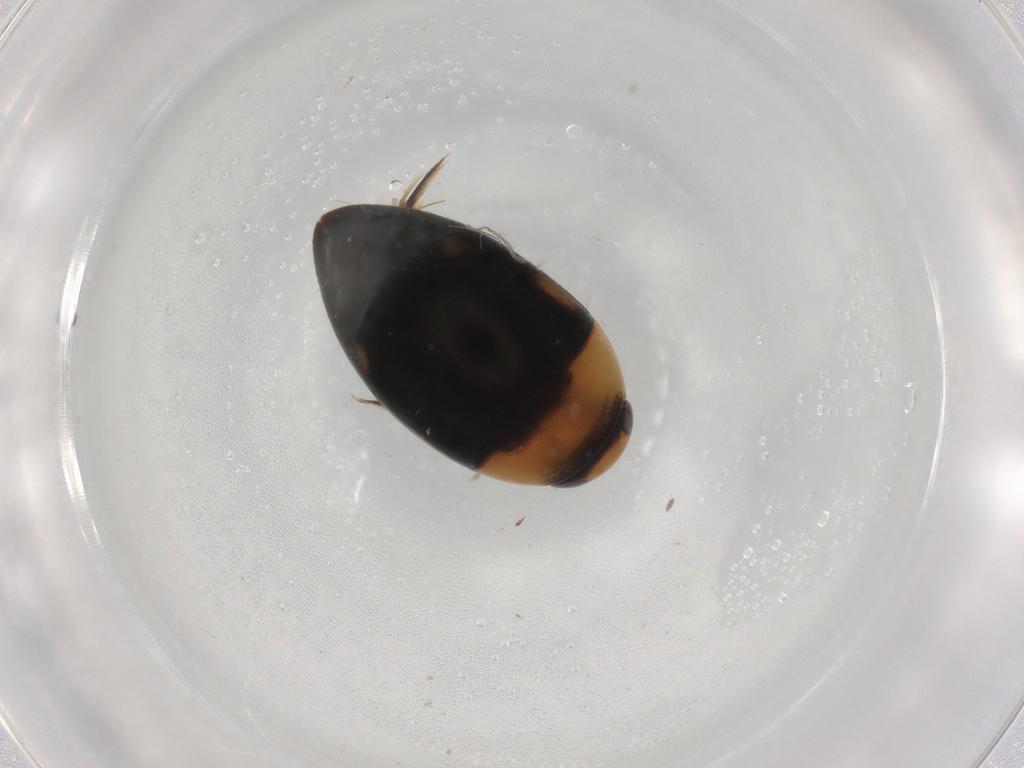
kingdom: Animalia
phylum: Arthropoda
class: Insecta
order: Coleoptera
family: Noteridae
